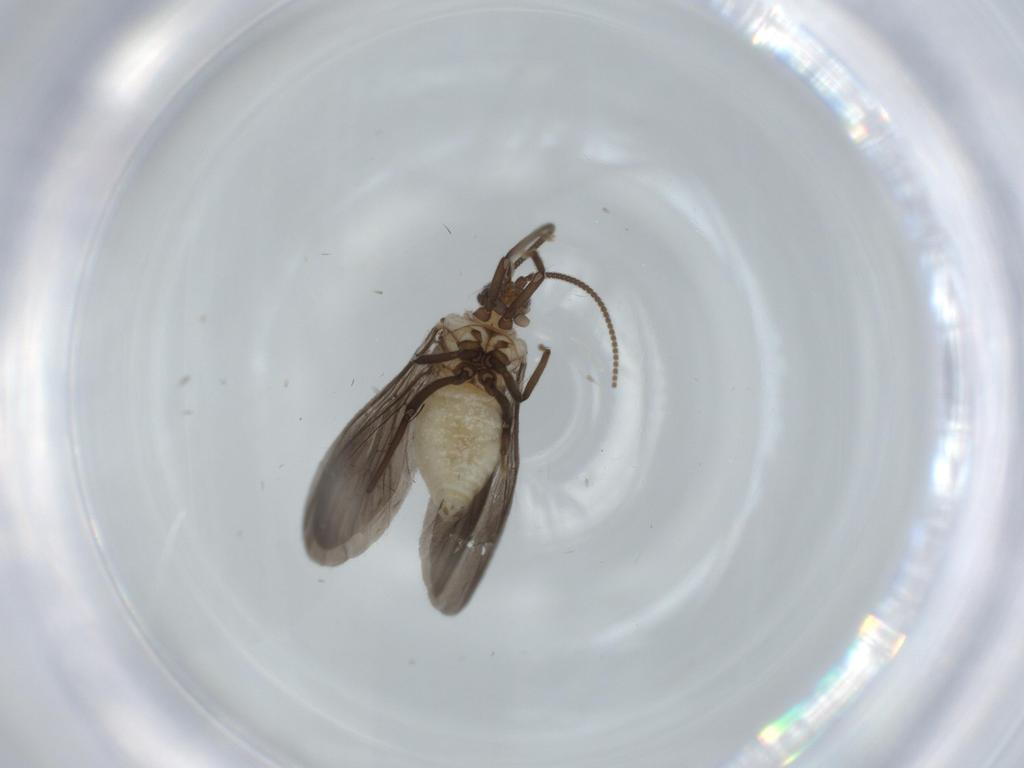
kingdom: Animalia
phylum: Arthropoda
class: Insecta
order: Neuroptera
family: Coniopterygidae
